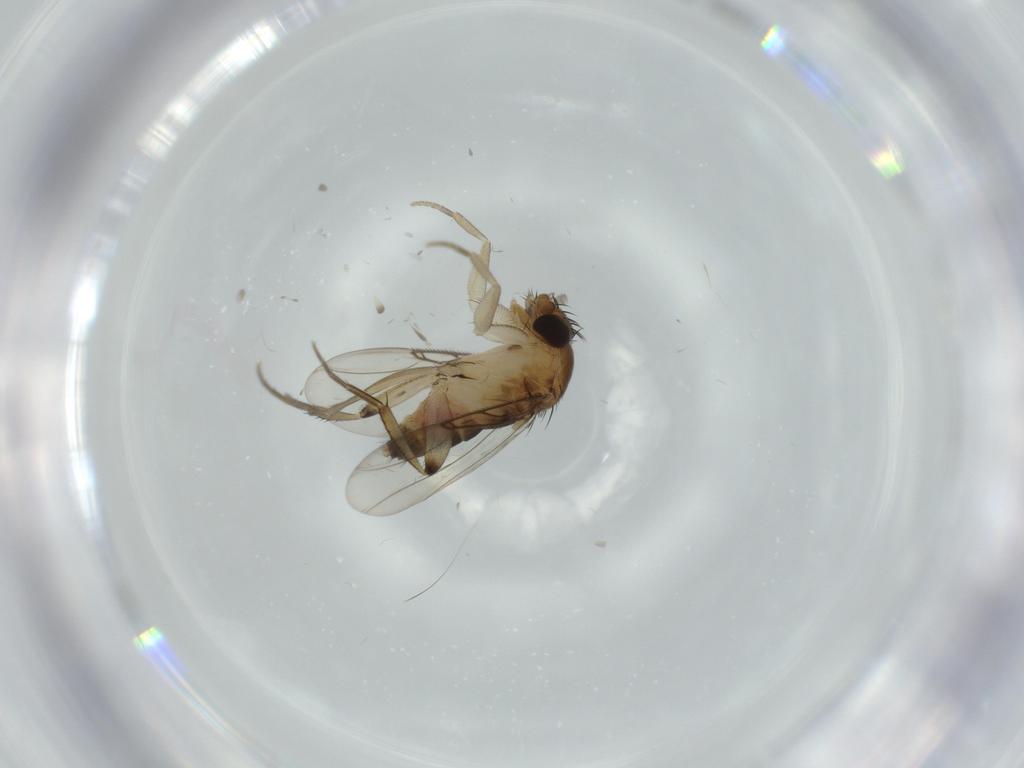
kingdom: Animalia
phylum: Arthropoda
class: Insecta
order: Diptera
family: Phoridae
